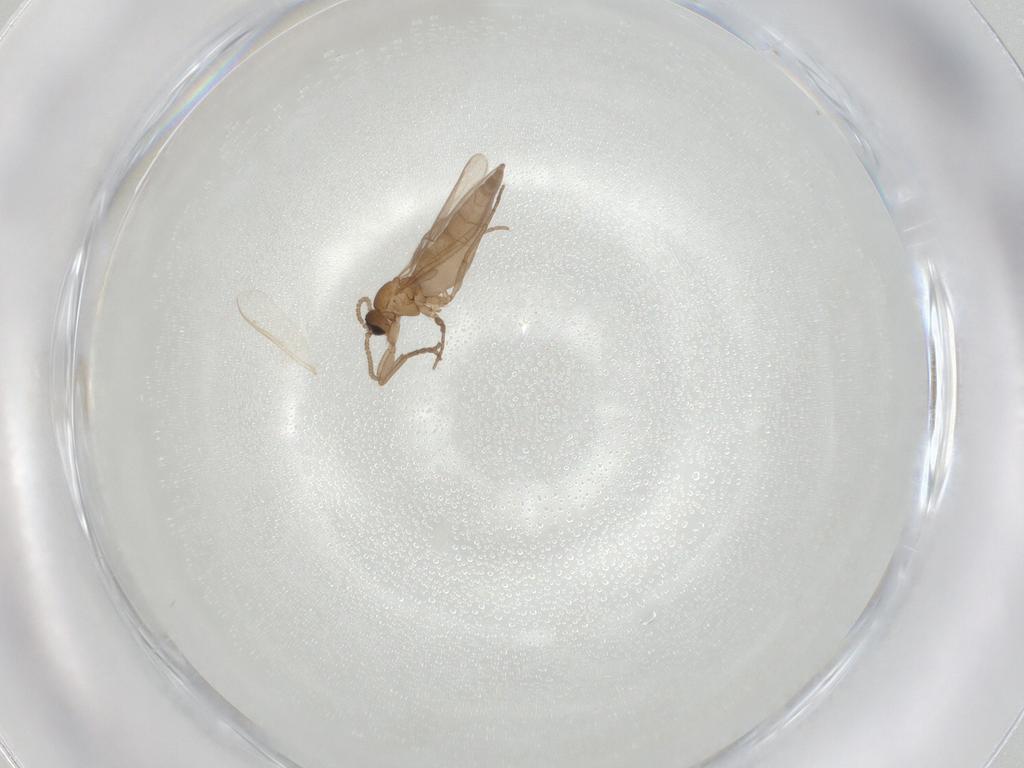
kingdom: Animalia
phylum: Arthropoda
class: Insecta
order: Diptera
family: Sciaridae
